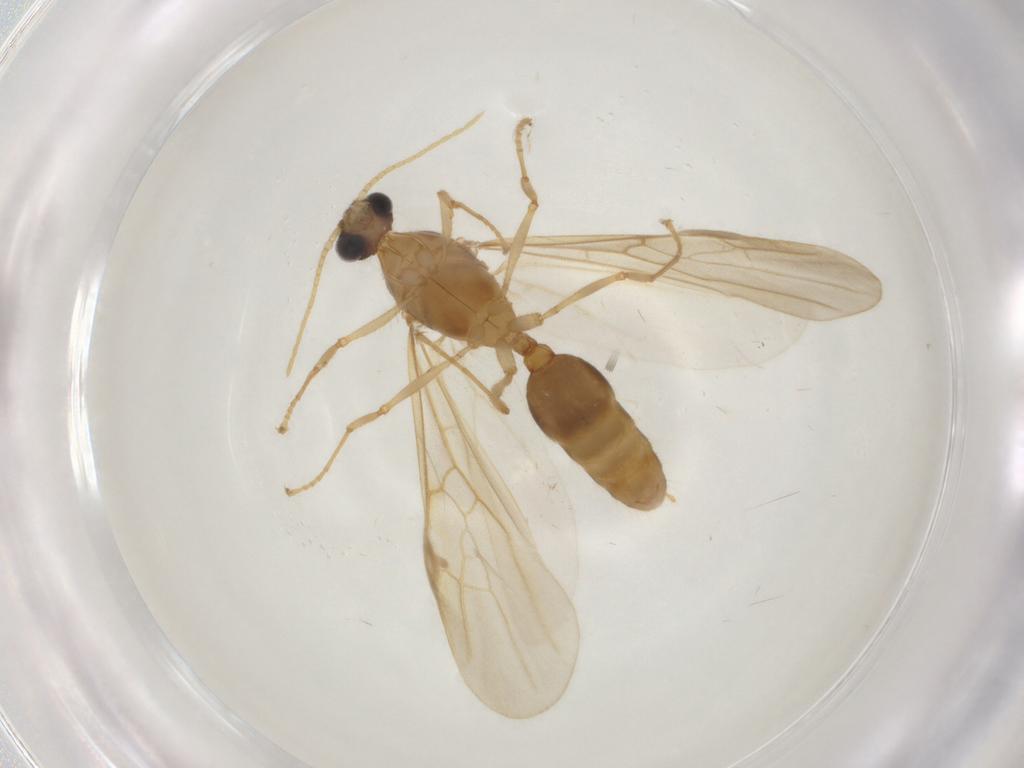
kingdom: Animalia
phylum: Arthropoda
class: Insecta
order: Hymenoptera
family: Formicidae
